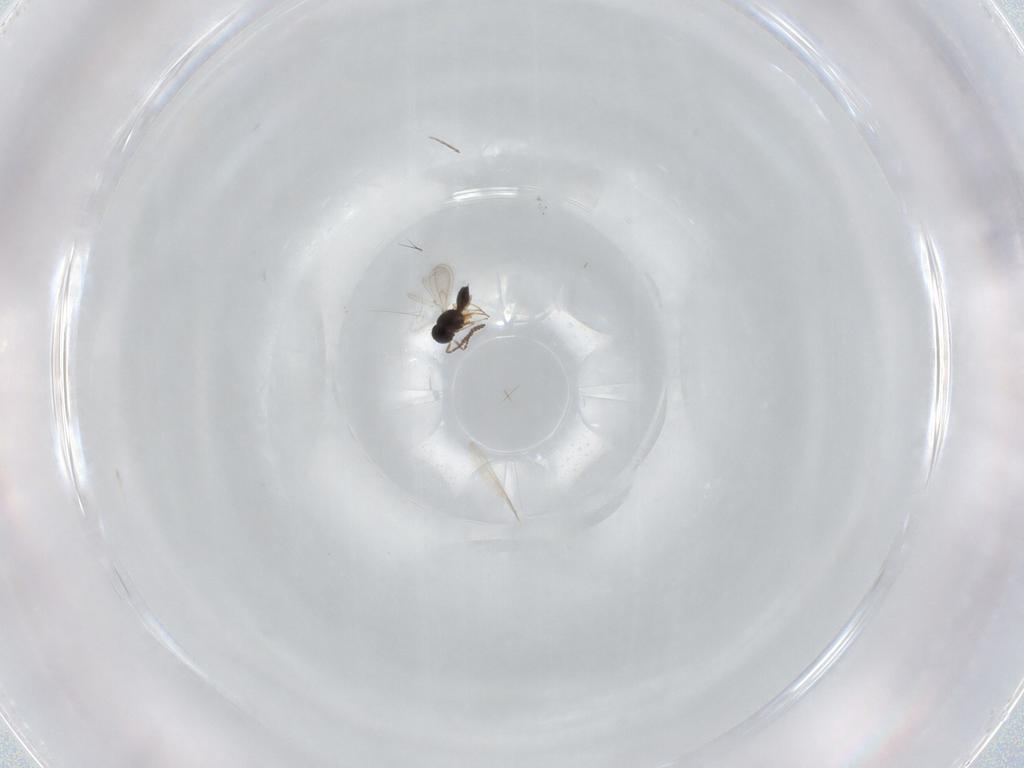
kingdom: Animalia
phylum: Arthropoda
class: Insecta
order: Hymenoptera
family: Scelionidae
